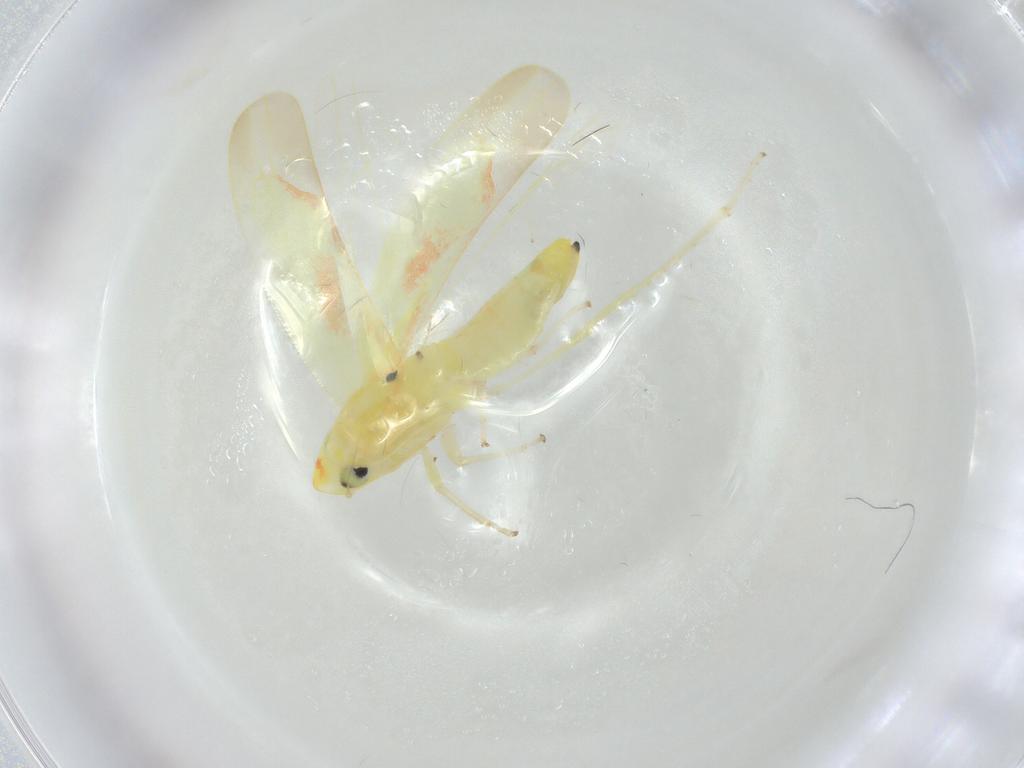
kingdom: Animalia
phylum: Arthropoda
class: Insecta
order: Hemiptera
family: Cicadellidae
